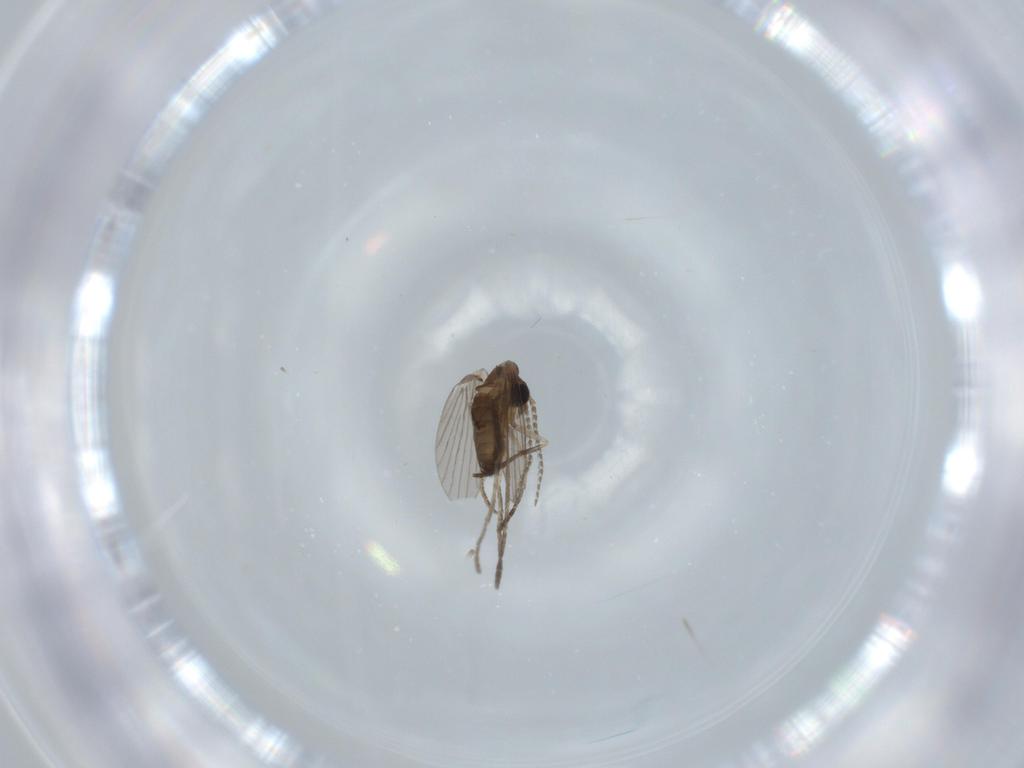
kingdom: Animalia
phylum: Arthropoda
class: Insecta
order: Diptera
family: Psychodidae
